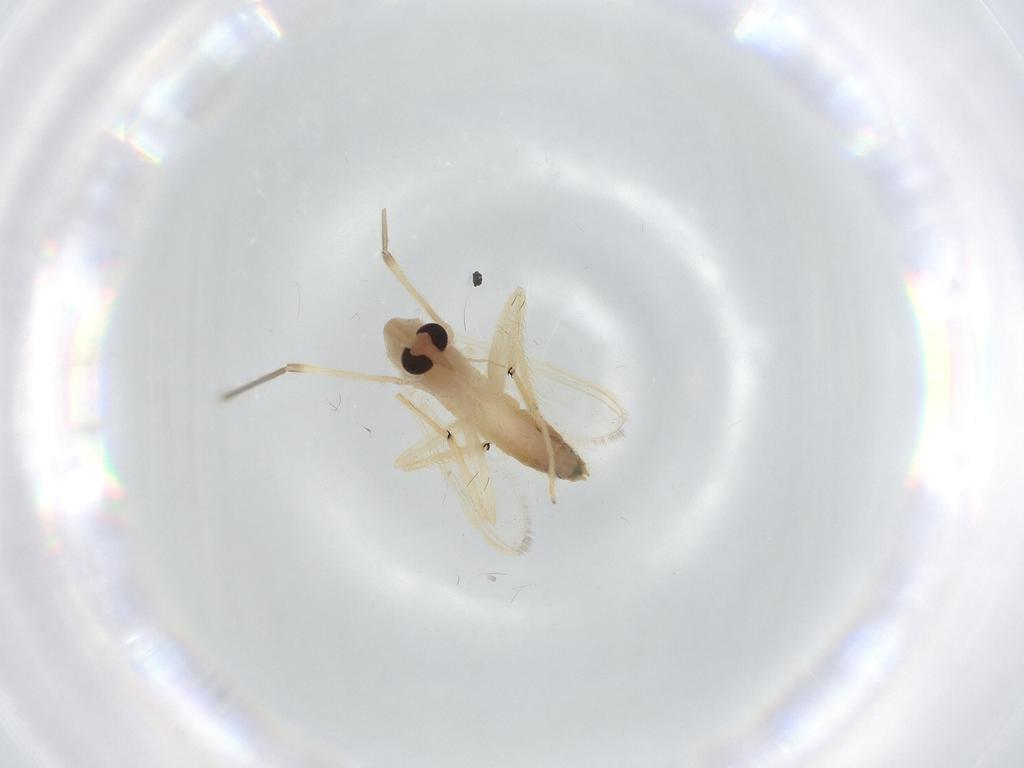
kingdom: Animalia
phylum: Arthropoda
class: Insecta
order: Diptera
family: Chironomidae
